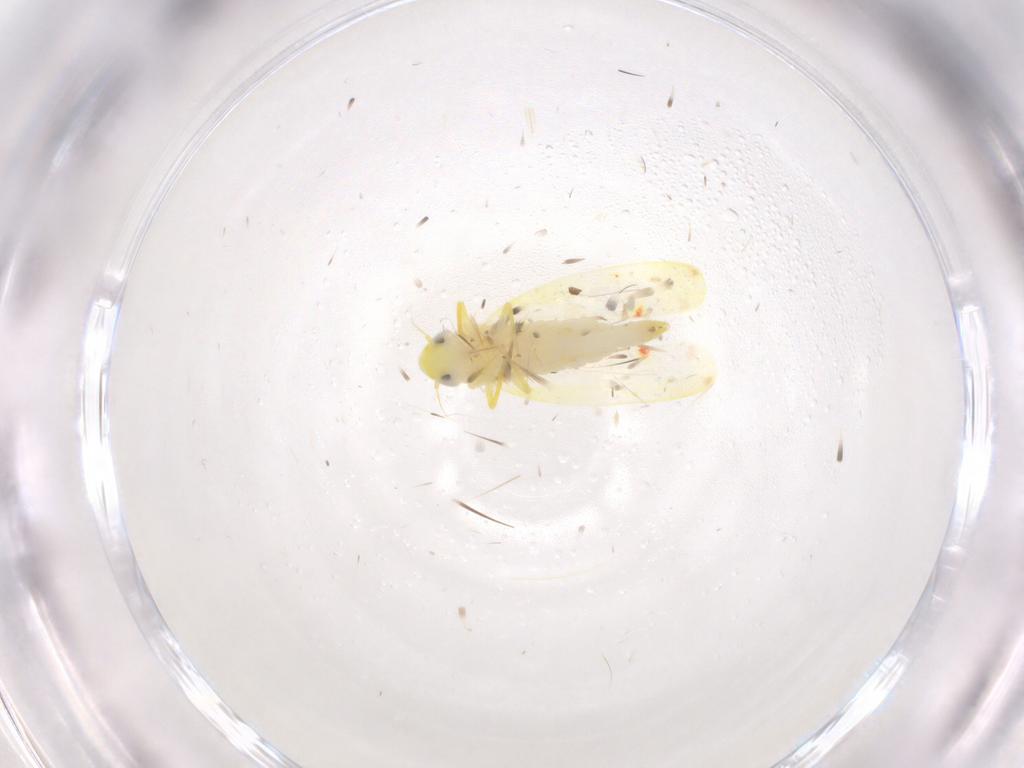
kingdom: Animalia
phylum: Arthropoda
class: Insecta
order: Hemiptera
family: Cicadellidae
